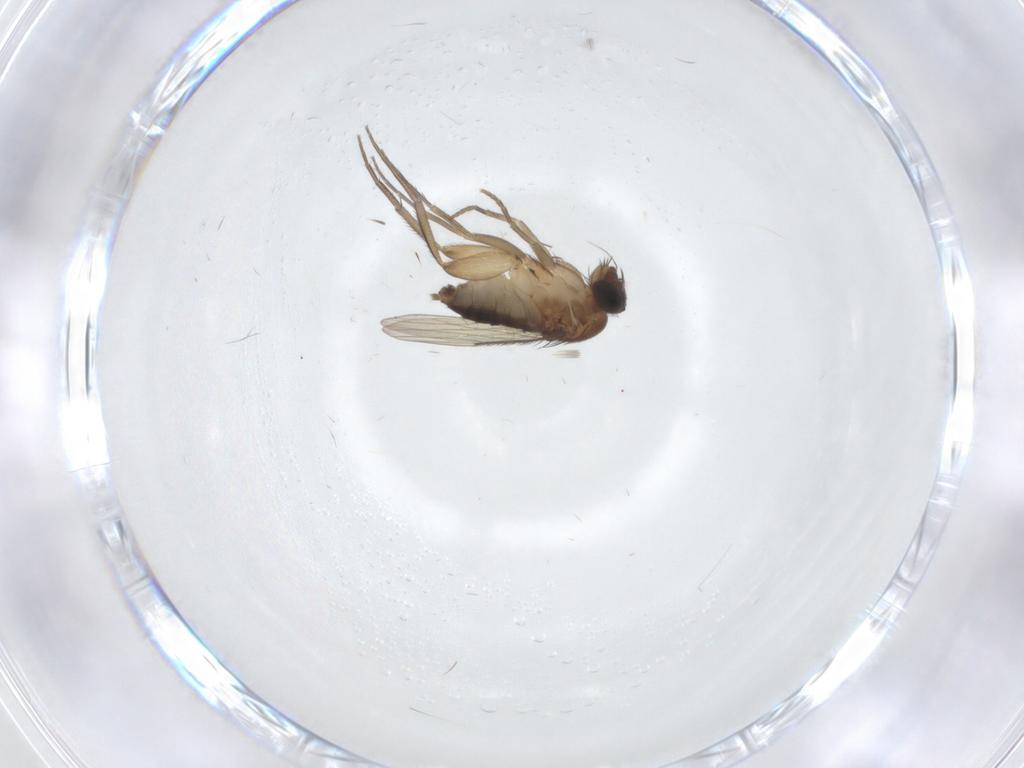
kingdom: Animalia
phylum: Arthropoda
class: Insecta
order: Diptera
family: Phoridae
